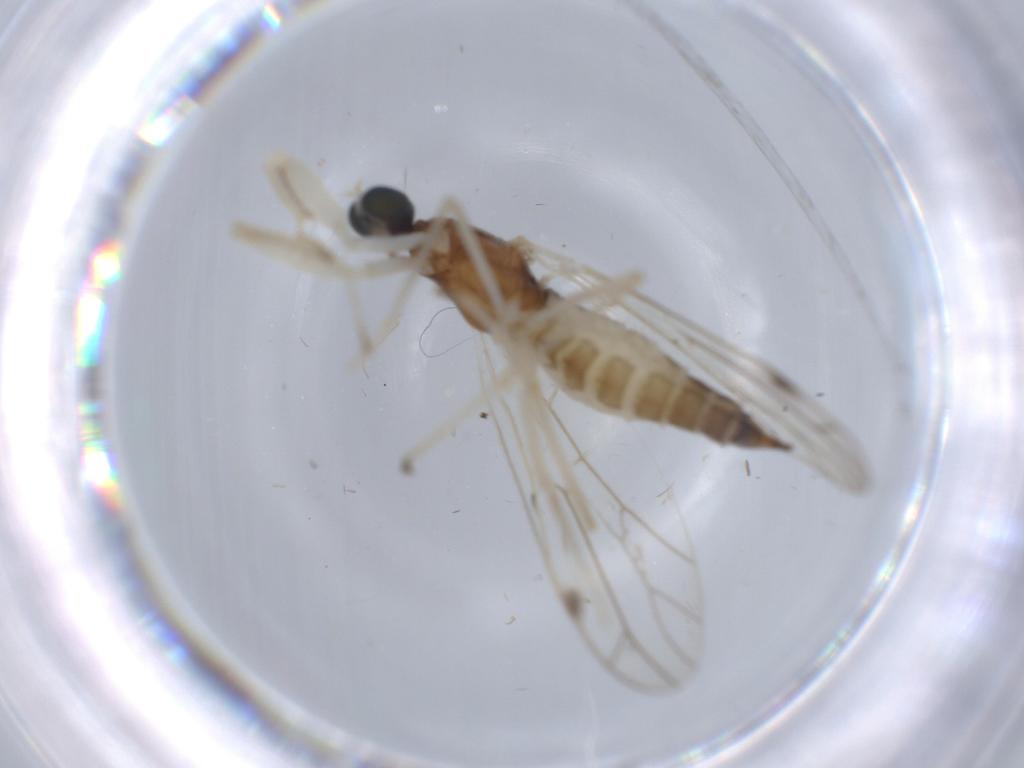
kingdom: Animalia
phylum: Arthropoda
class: Insecta
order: Diptera
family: Empididae
